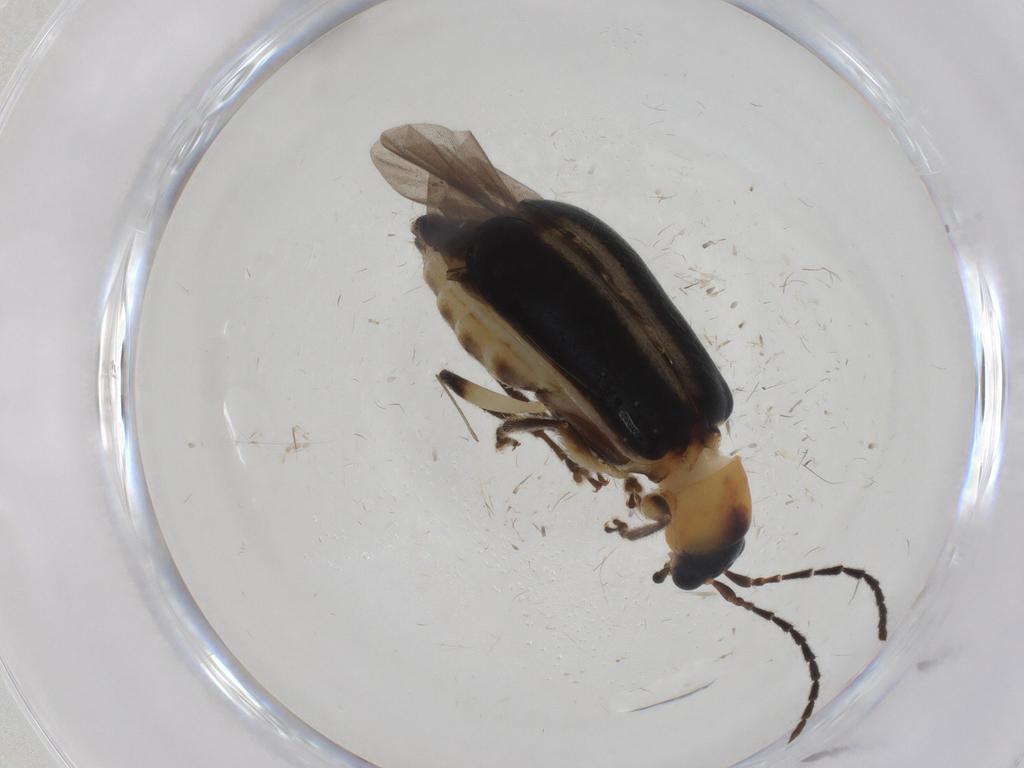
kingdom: Animalia
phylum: Arthropoda
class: Insecta
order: Coleoptera
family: Chrysomelidae
